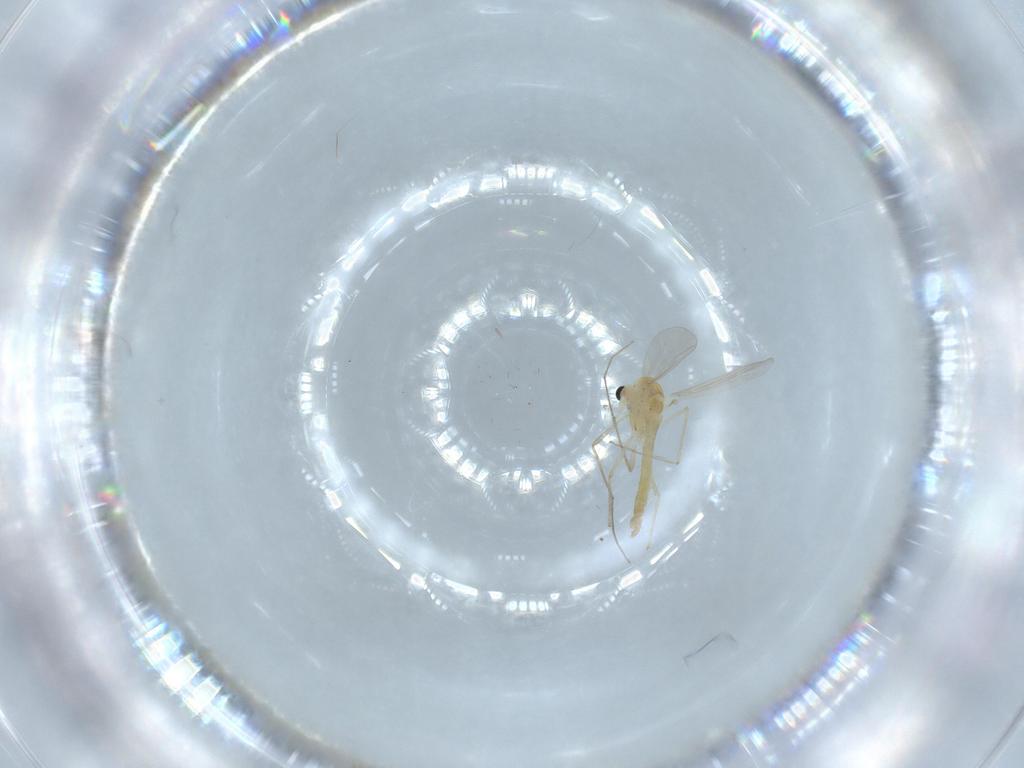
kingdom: Animalia
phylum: Arthropoda
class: Insecta
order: Diptera
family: Chironomidae
